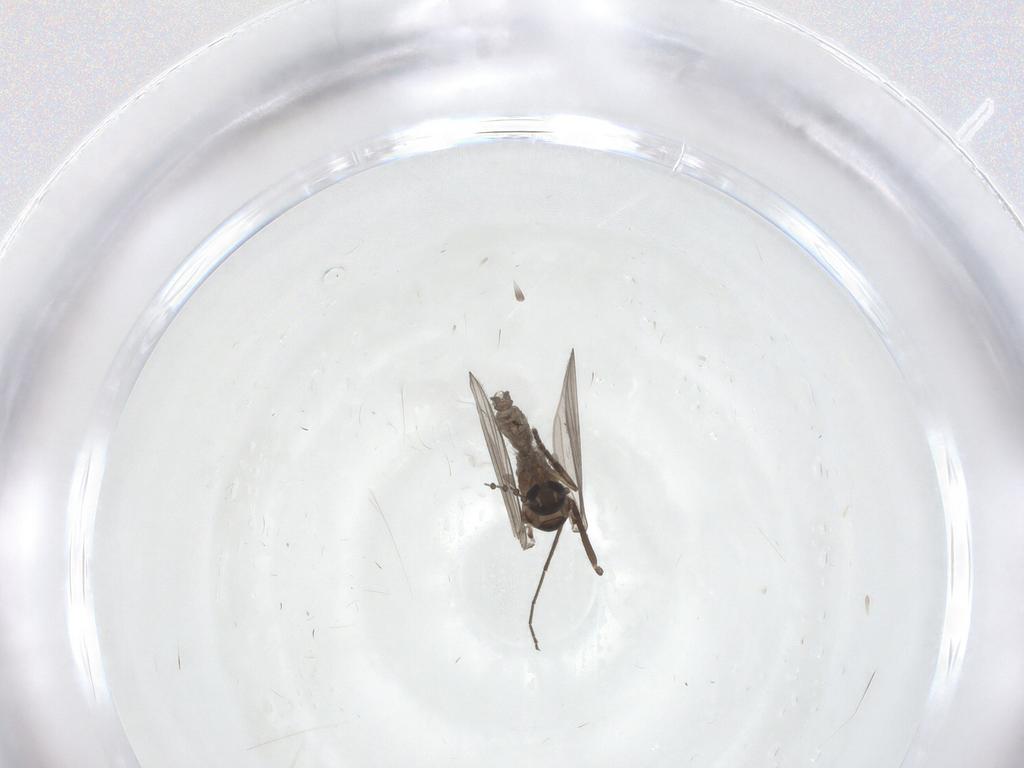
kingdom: Animalia
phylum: Arthropoda
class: Insecta
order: Diptera
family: Psychodidae
